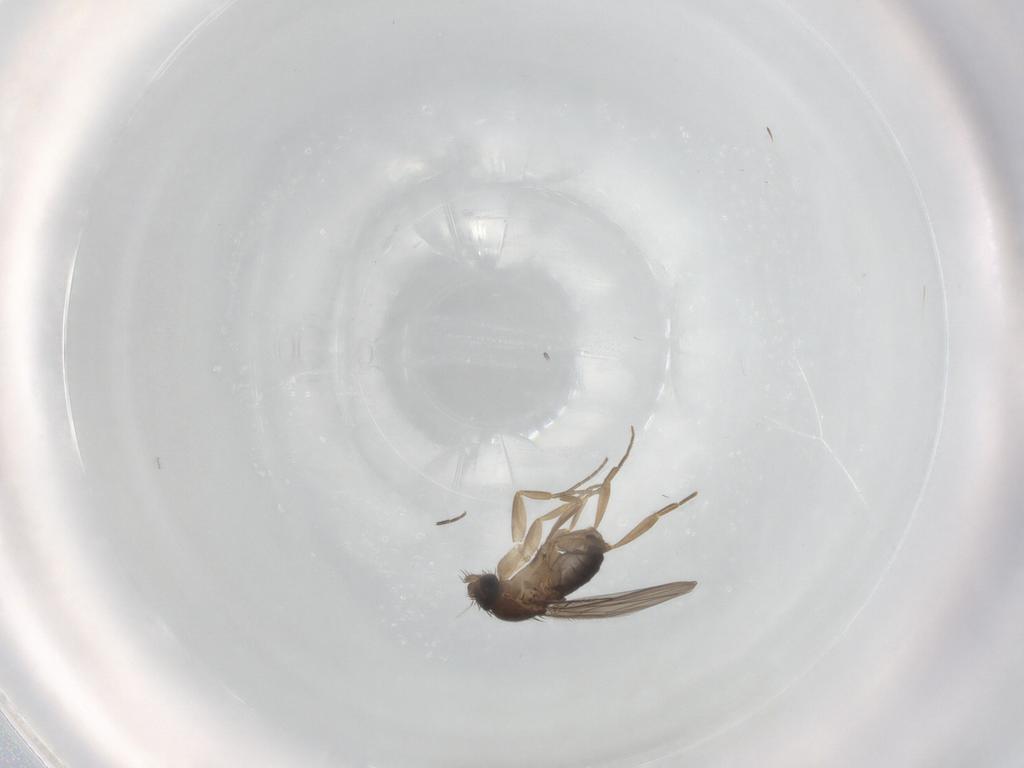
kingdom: Animalia
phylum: Arthropoda
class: Insecta
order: Diptera
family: Cecidomyiidae
